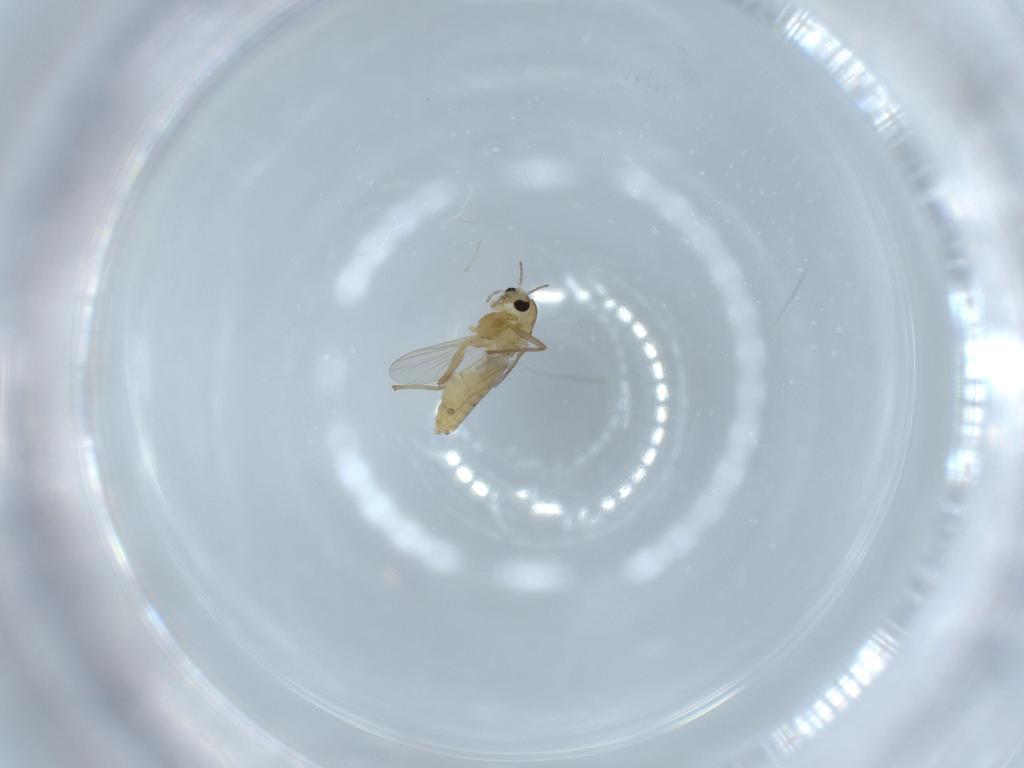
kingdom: Animalia
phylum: Arthropoda
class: Insecta
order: Diptera
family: Chironomidae
